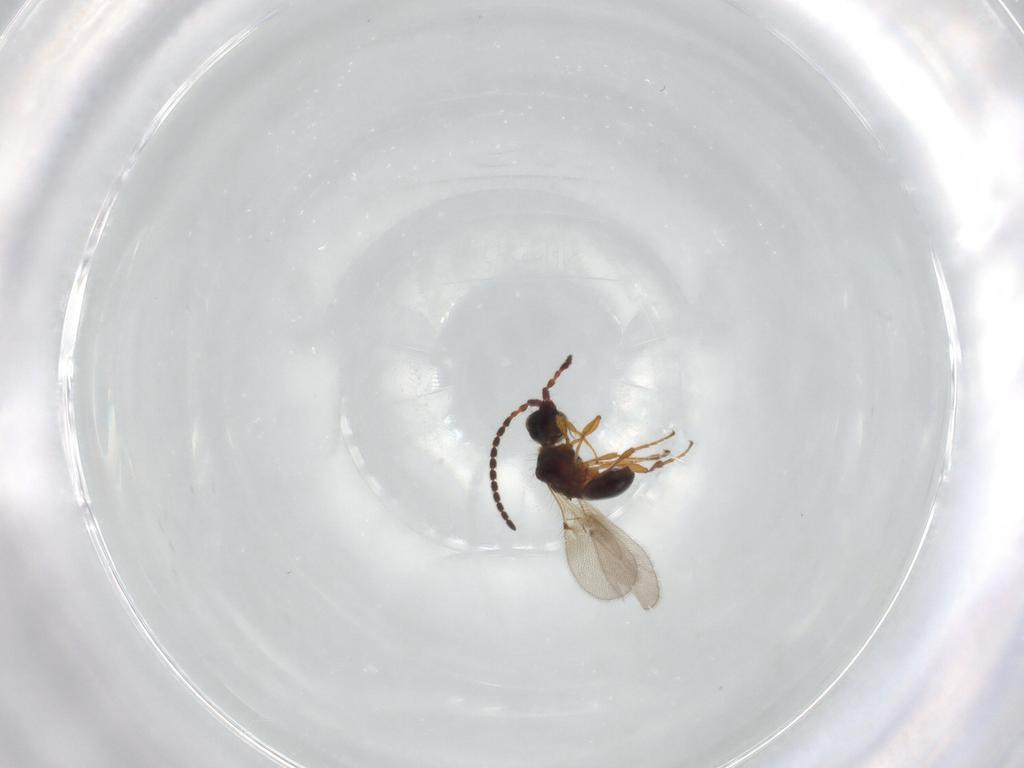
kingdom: Animalia
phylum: Arthropoda
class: Insecta
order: Hymenoptera
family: Diapriidae
